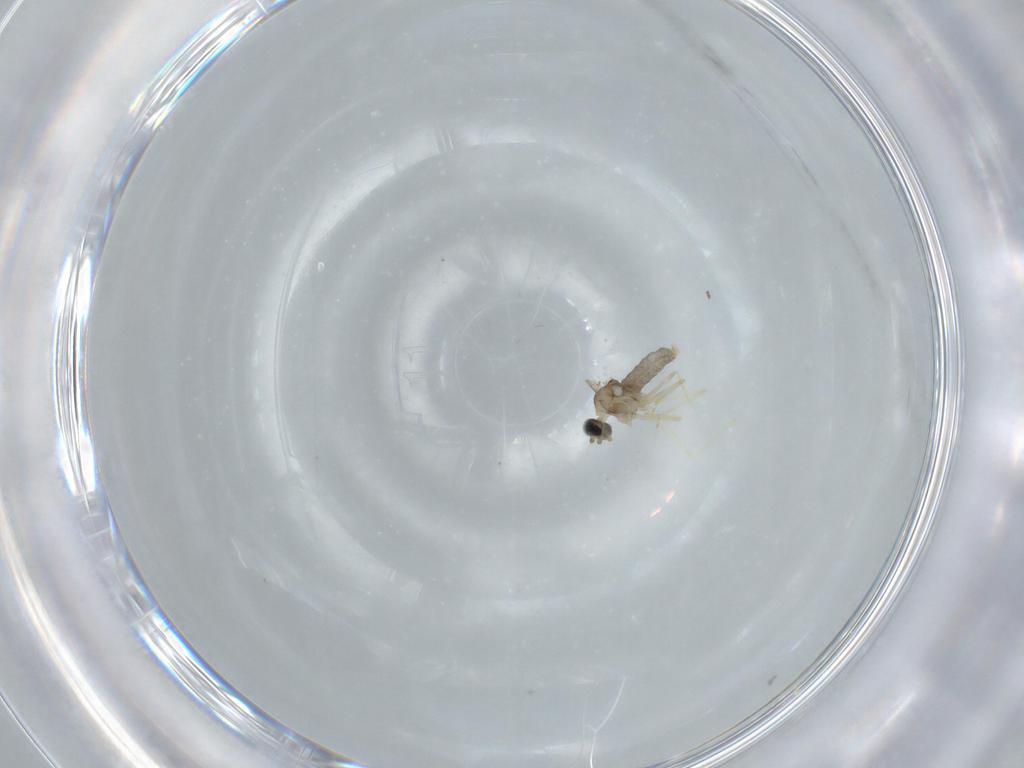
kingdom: Animalia
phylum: Arthropoda
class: Insecta
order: Diptera
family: Cecidomyiidae
